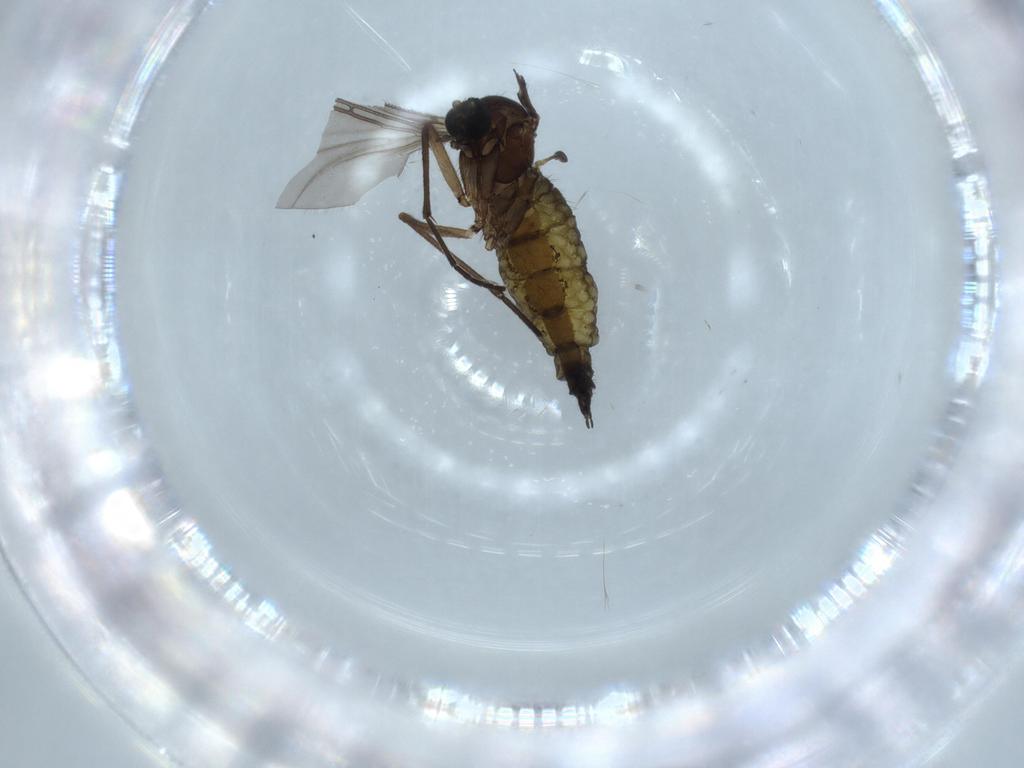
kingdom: Animalia
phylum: Arthropoda
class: Insecta
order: Diptera
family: Sciaridae
